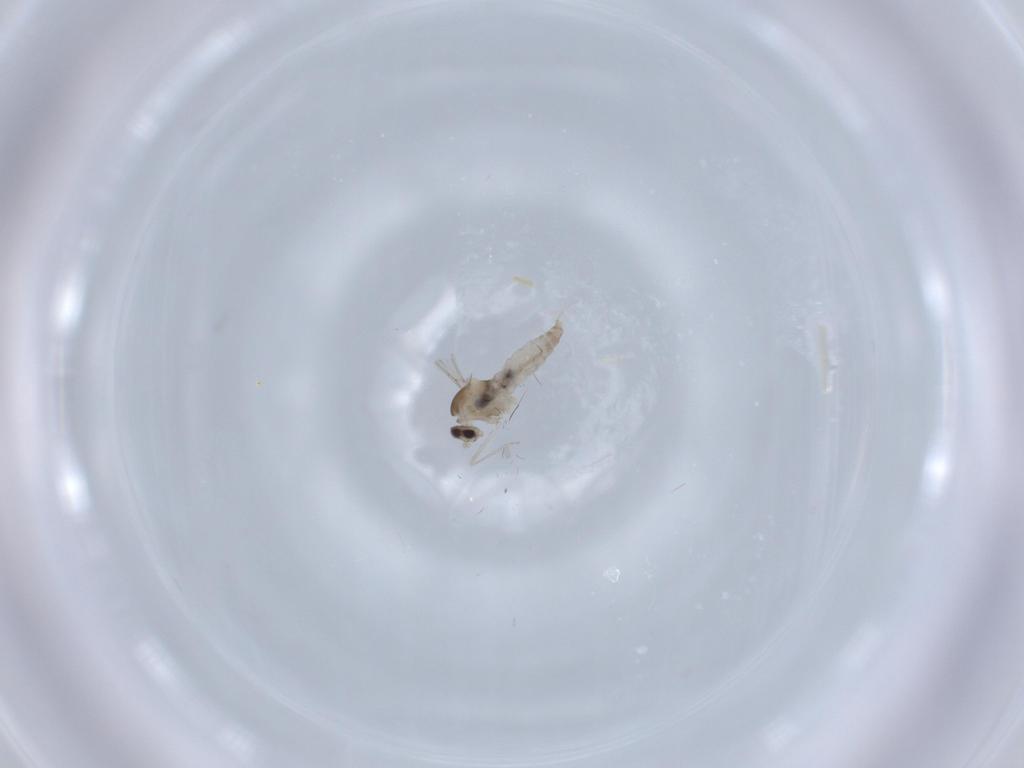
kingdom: Animalia
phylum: Arthropoda
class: Insecta
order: Diptera
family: Cecidomyiidae
